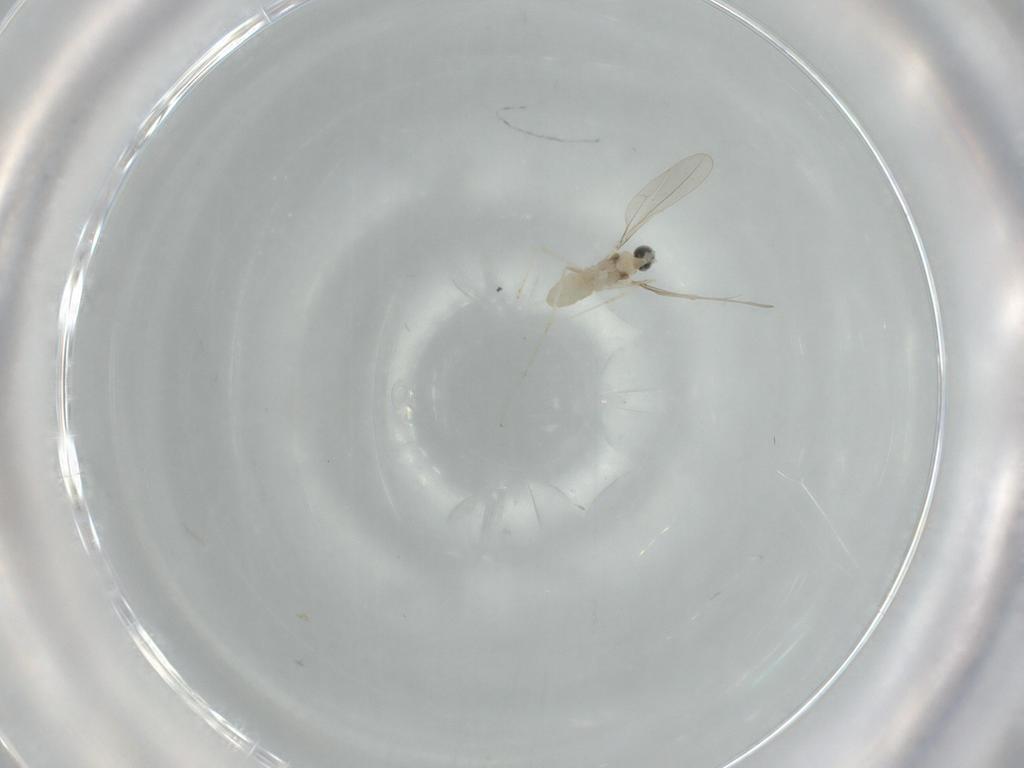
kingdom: Animalia
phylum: Arthropoda
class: Insecta
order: Diptera
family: Cecidomyiidae
